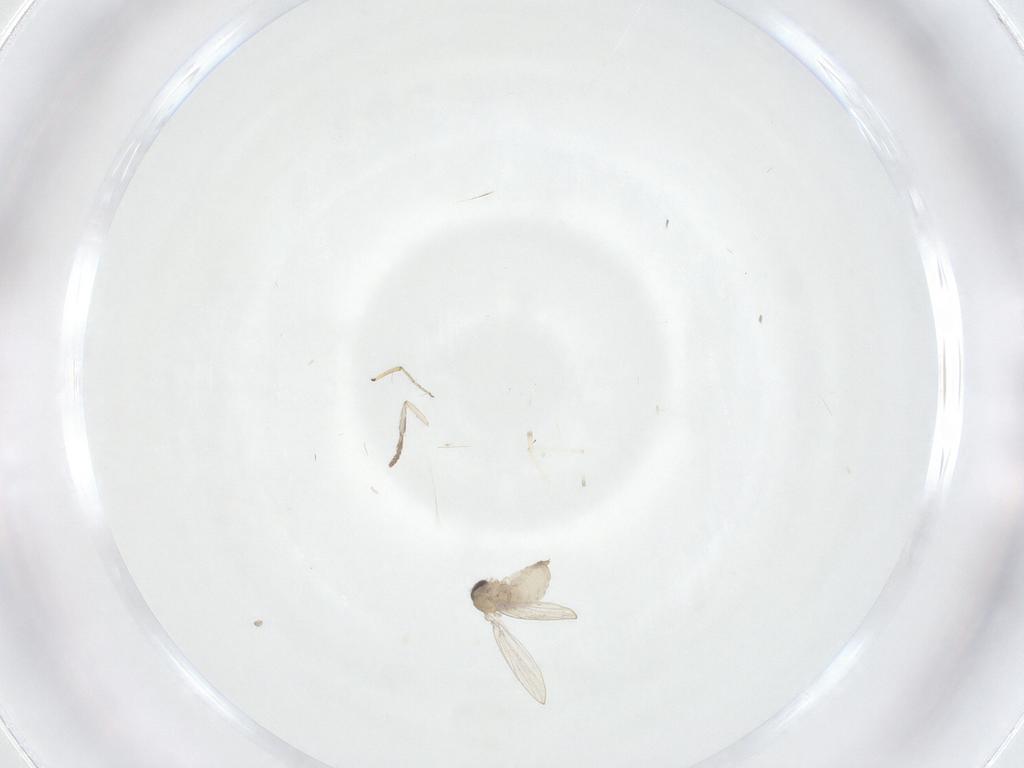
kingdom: Animalia
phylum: Arthropoda
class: Insecta
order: Diptera
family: Psychodidae
